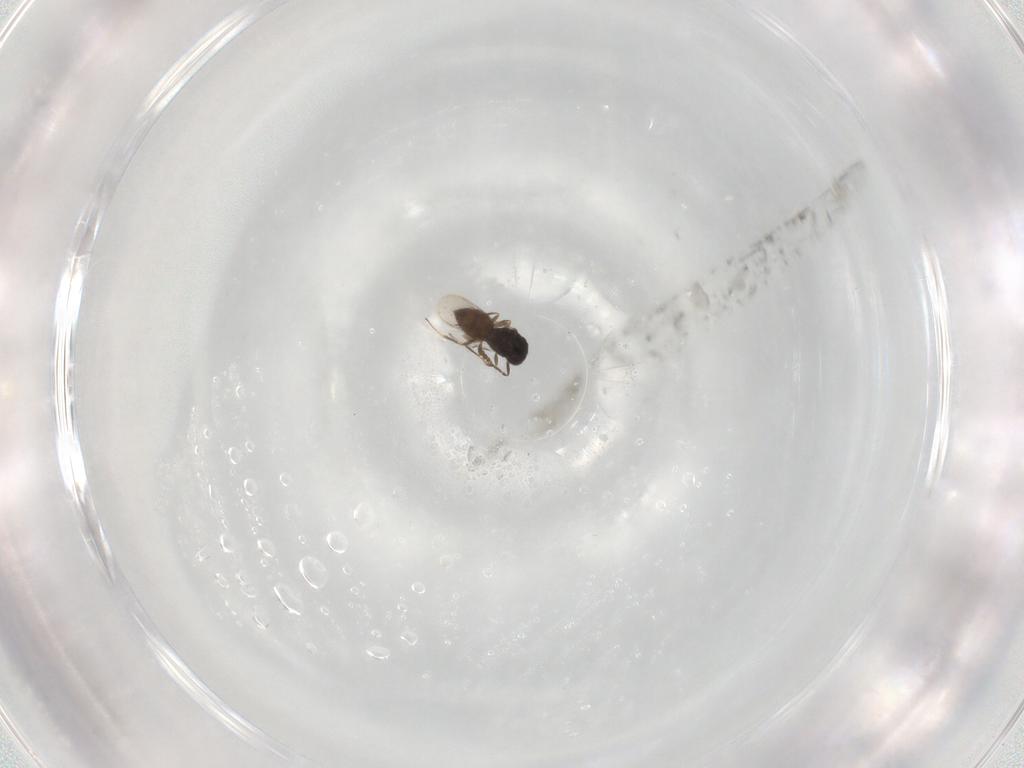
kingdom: Animalia
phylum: Arthropoda
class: Insecta
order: Hymenoptera
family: Scelionidae
